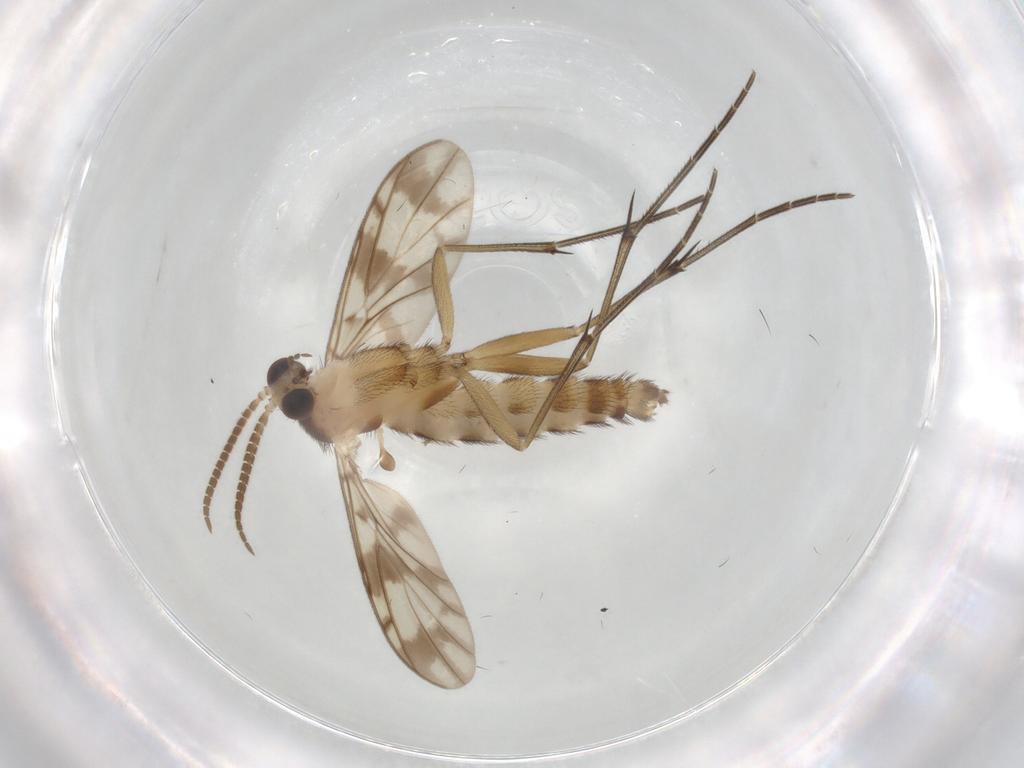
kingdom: Animalia
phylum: Arthropoda
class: Insecta
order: Diptera
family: Keroplatidae
